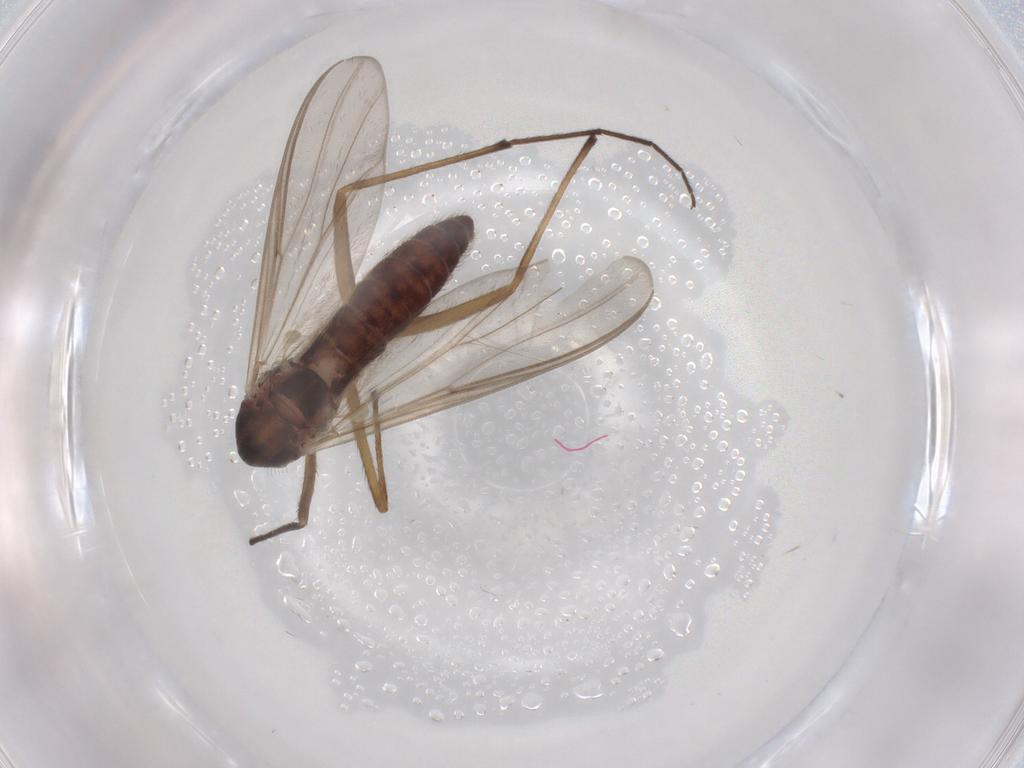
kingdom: Animalia
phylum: Arthropoda
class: Insecta
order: Diptera
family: Chironomidae
